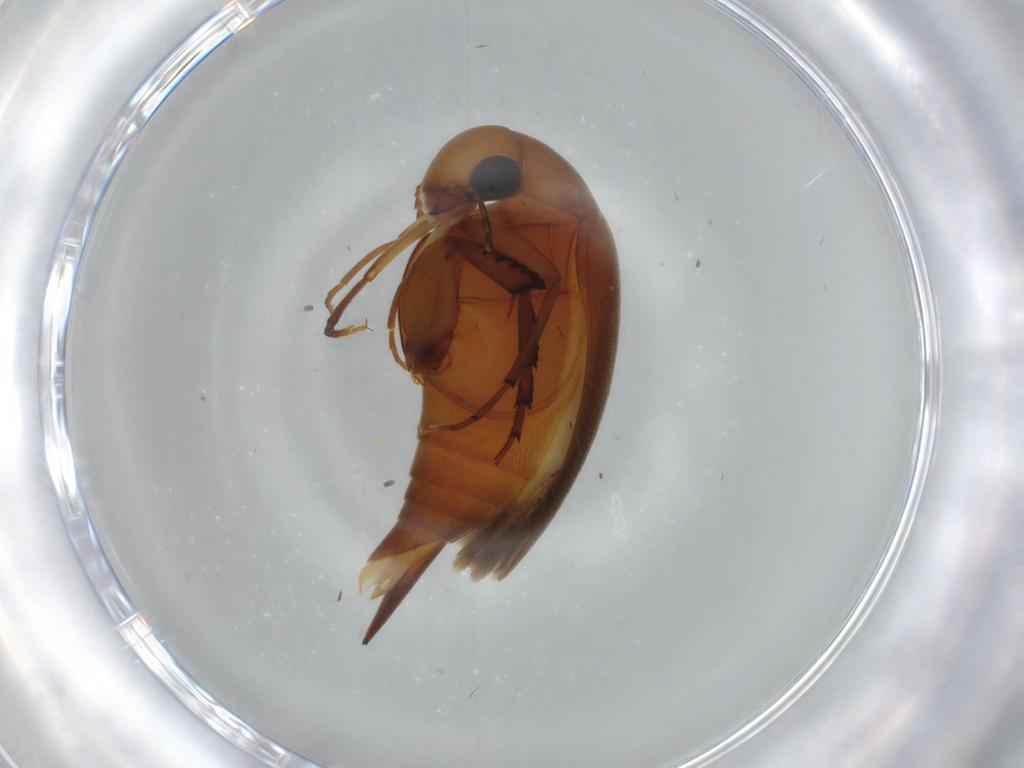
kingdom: Animalia
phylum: Arthropoda
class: Insecta
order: Coleoptera
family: Mordellidae
